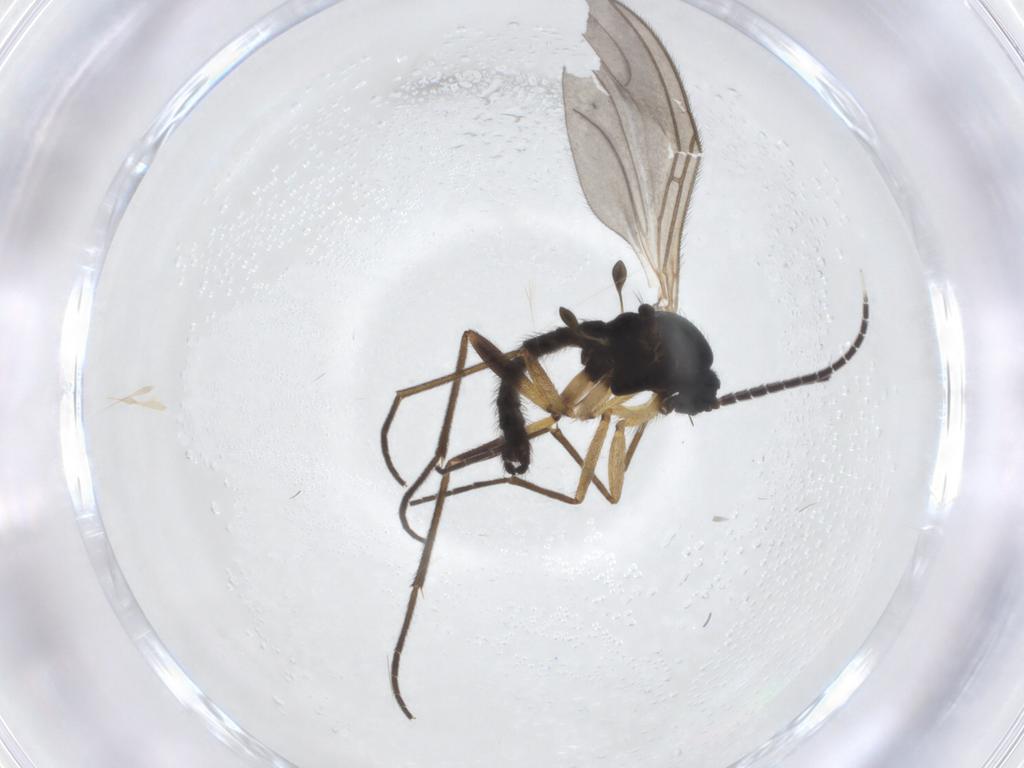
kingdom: Animalia
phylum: Arthropoda
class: Insecta
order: Diptera
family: Sciaridae
